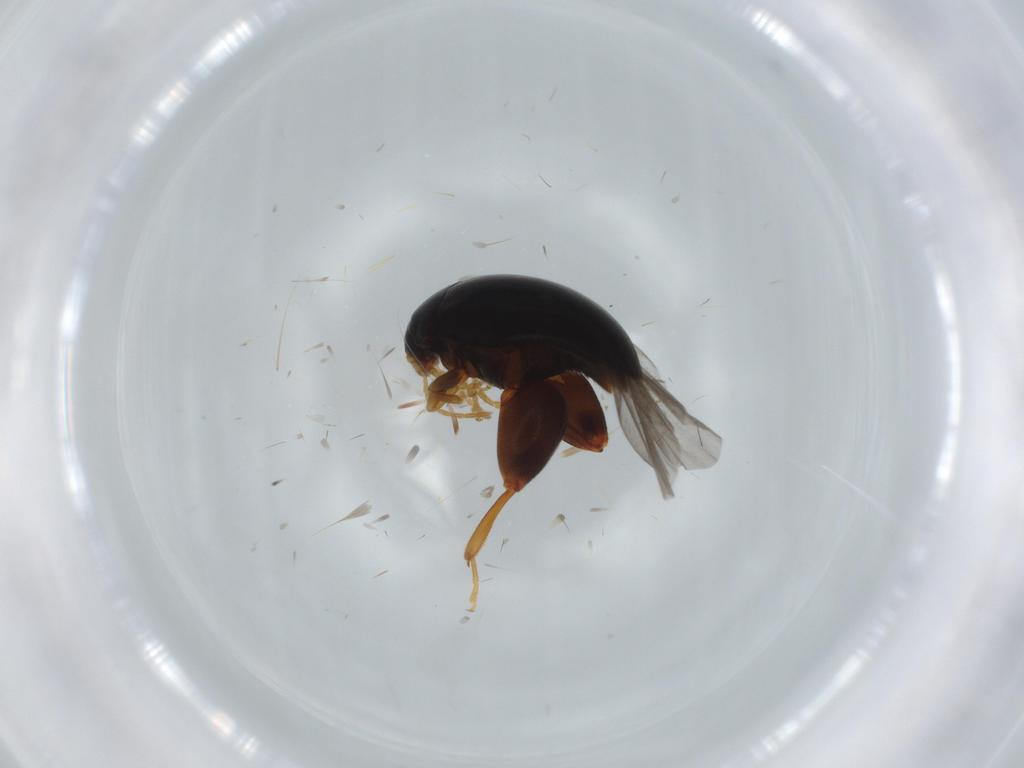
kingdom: Animalia
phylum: Arthropoda
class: Insecta
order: Coleoptera
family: Chrysomelidae
